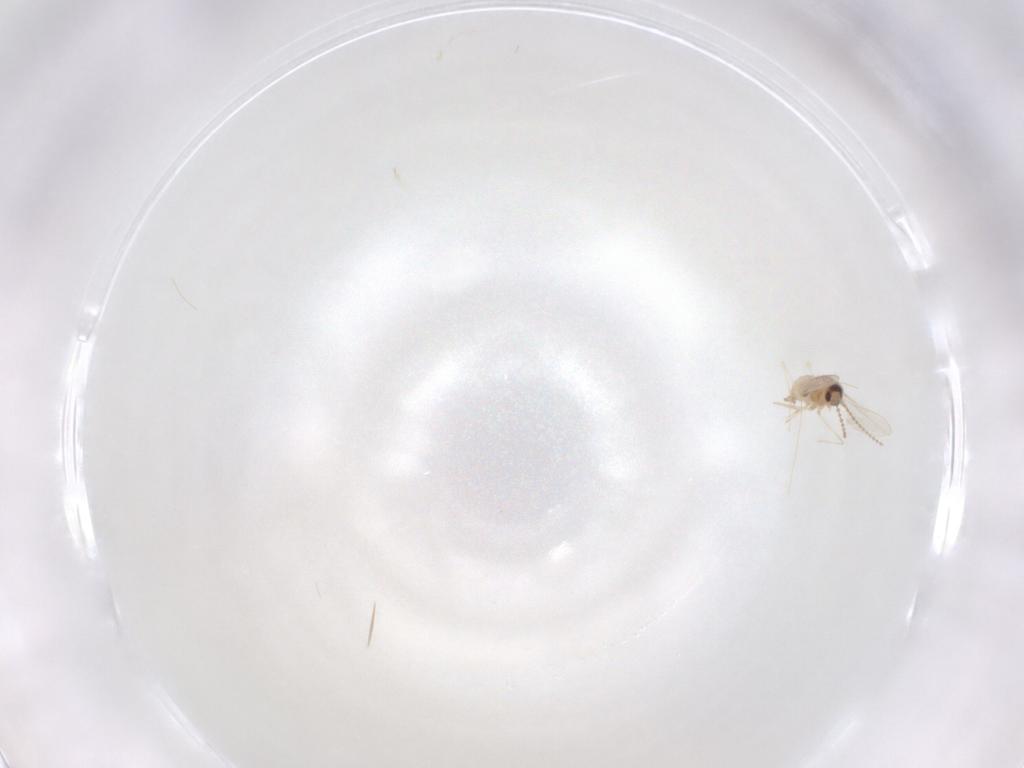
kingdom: Animalia
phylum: Arthropoda
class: Insecta
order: Diptera
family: Cecidomyiidae
